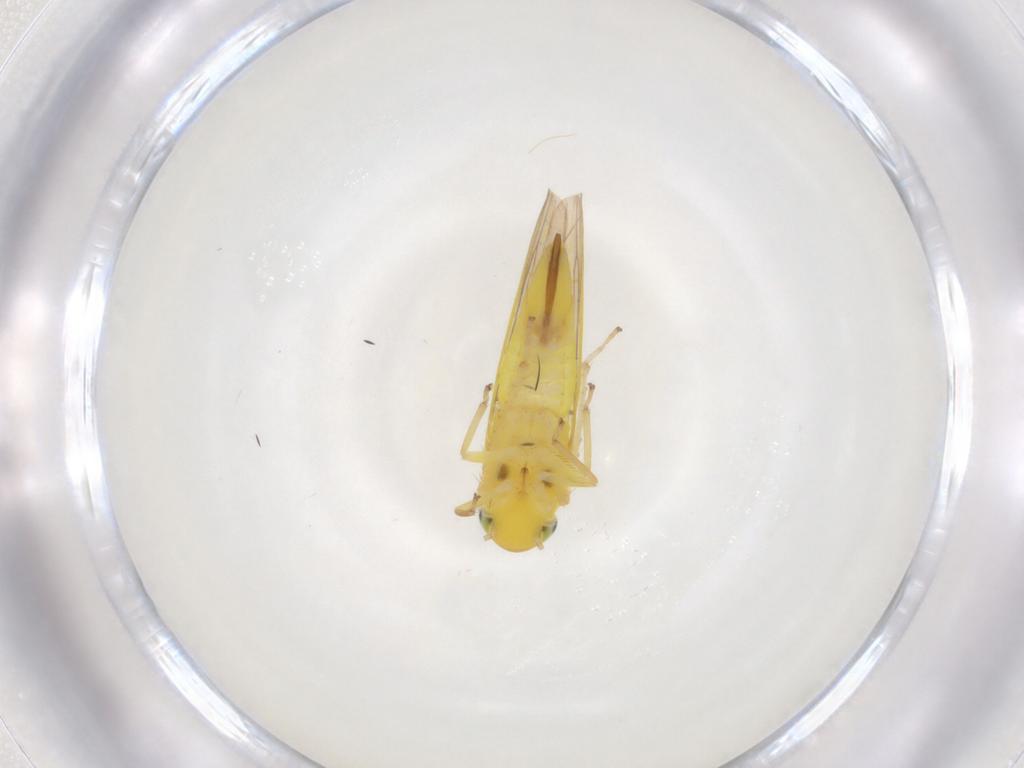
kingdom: Animalia
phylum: Arthropoda
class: Insecta
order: Hemiptera
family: Cicadellidae
